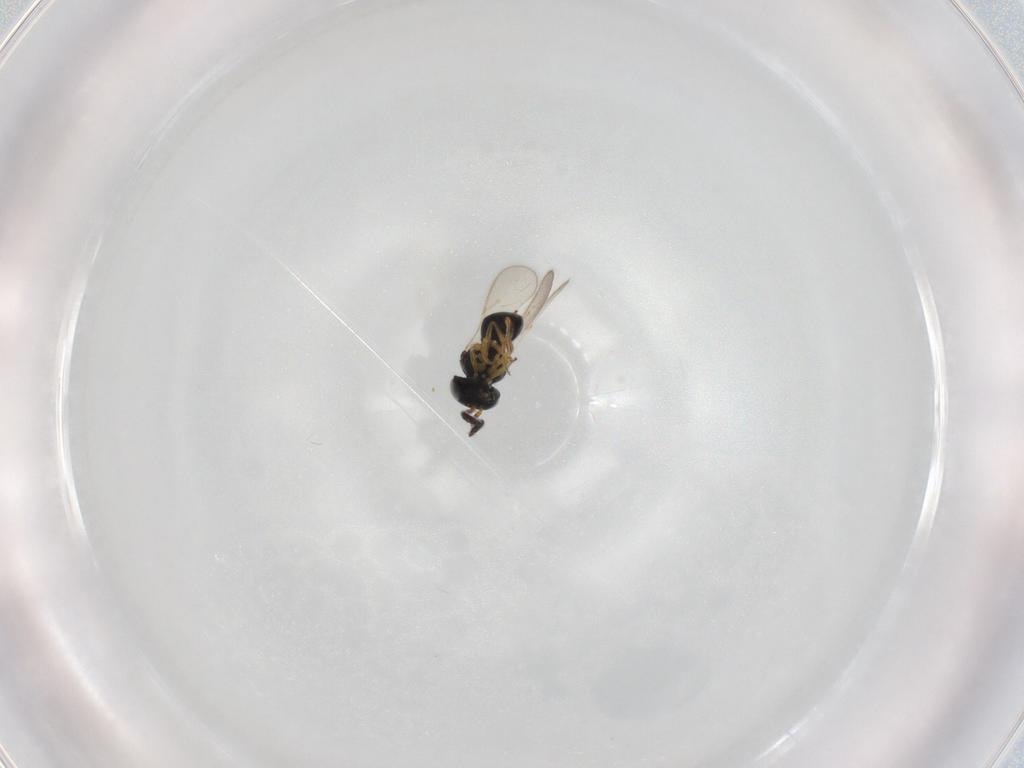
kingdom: Animalia
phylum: Arthropoda
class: Insecta
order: Hymenoptera
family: Scelionidae
